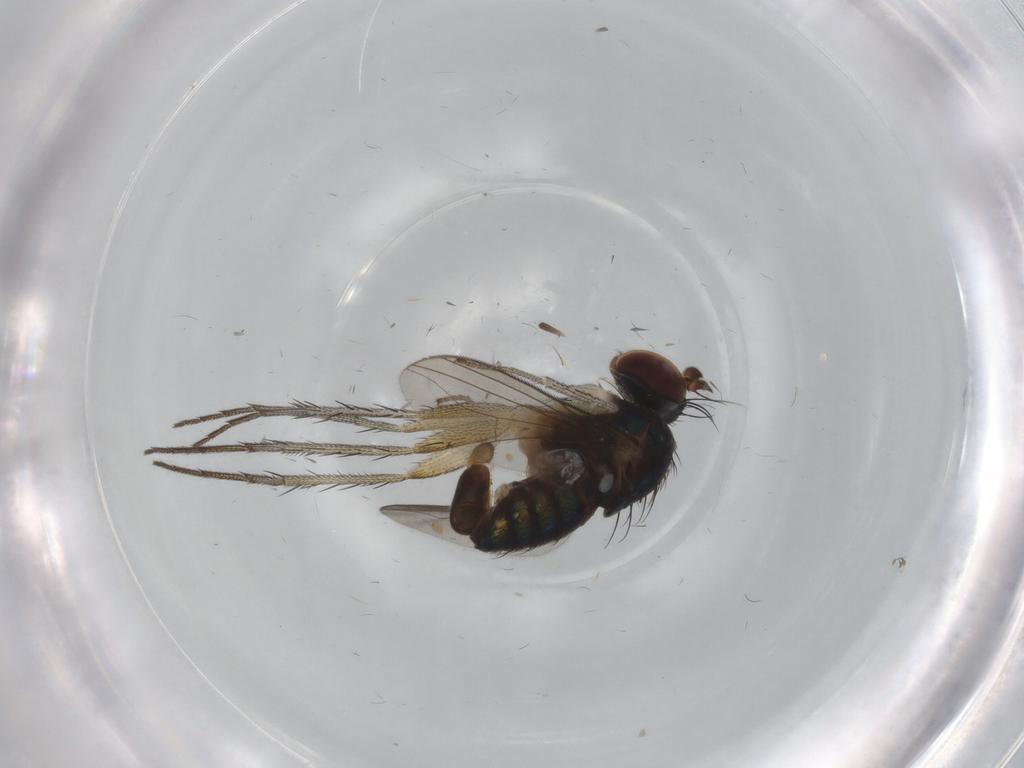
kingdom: Animalia
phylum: Arthropoda
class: Insecta
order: Diptera
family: Dolichopodidae
